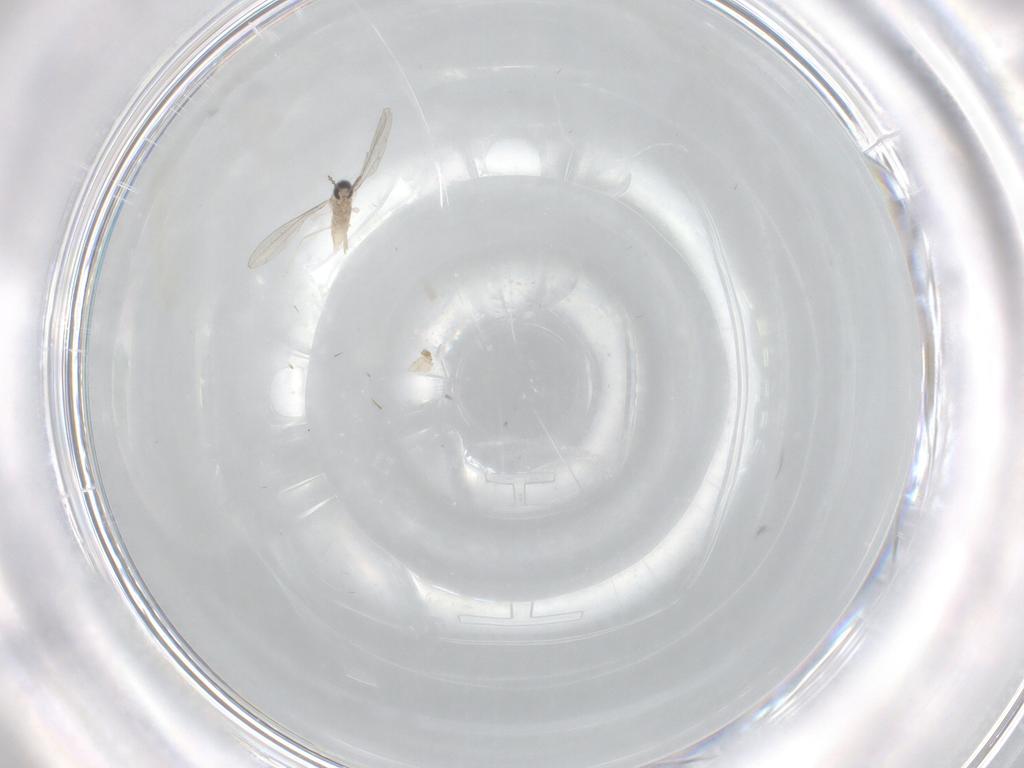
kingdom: Animalia
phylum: Arthropoda
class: Insecta
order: Diptera
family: Cecidomyiidae
